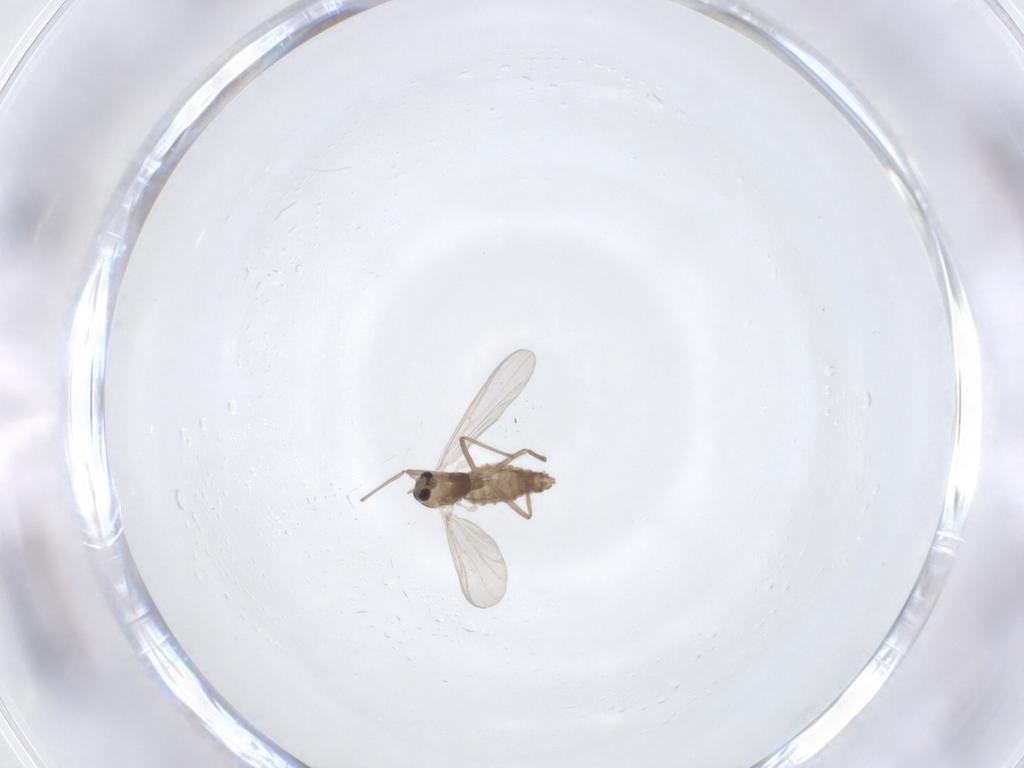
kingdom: Animalia
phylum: Arthropoda
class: Insecta
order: Diptera
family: Chironomidae
